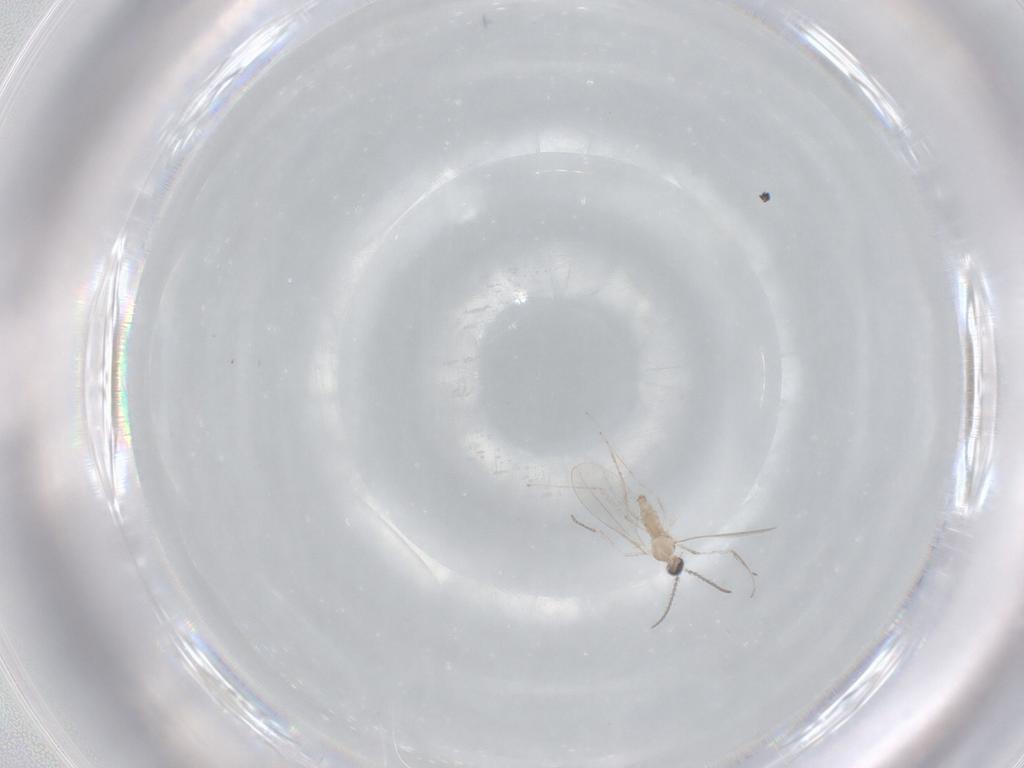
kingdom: Animalia
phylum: Arthropoda
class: Insecta
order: Diptera
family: Cecidomyiidae
